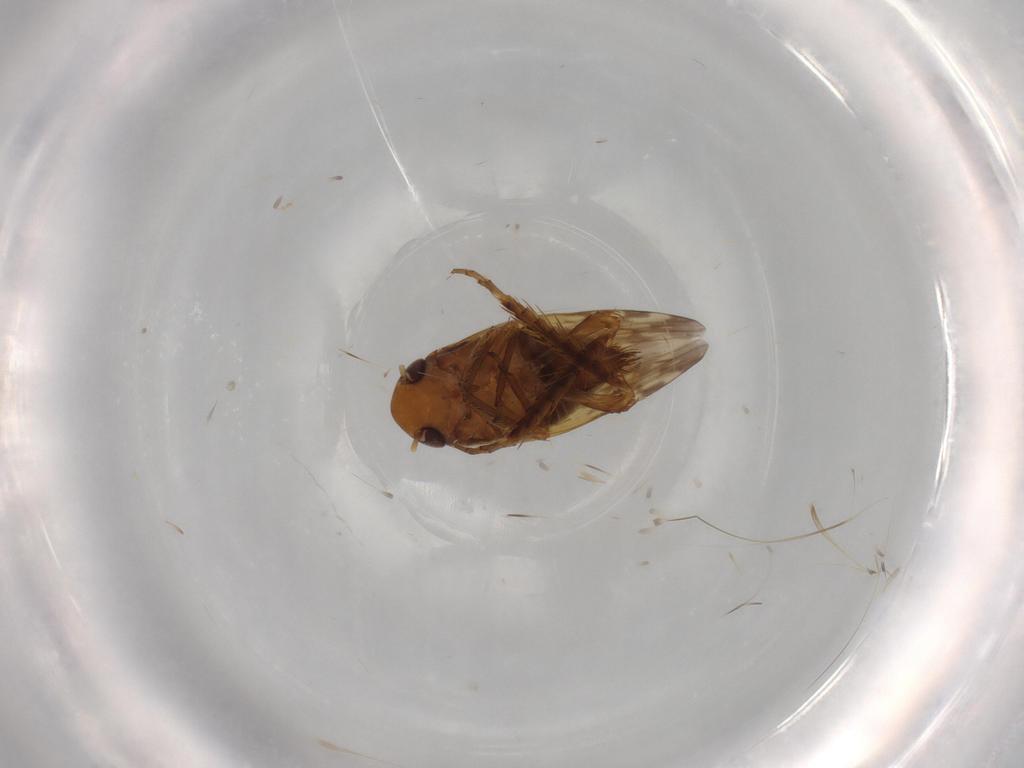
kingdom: Animalia
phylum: Arthropoda
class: Insecta
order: Hemiptera
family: Cicadellidae
